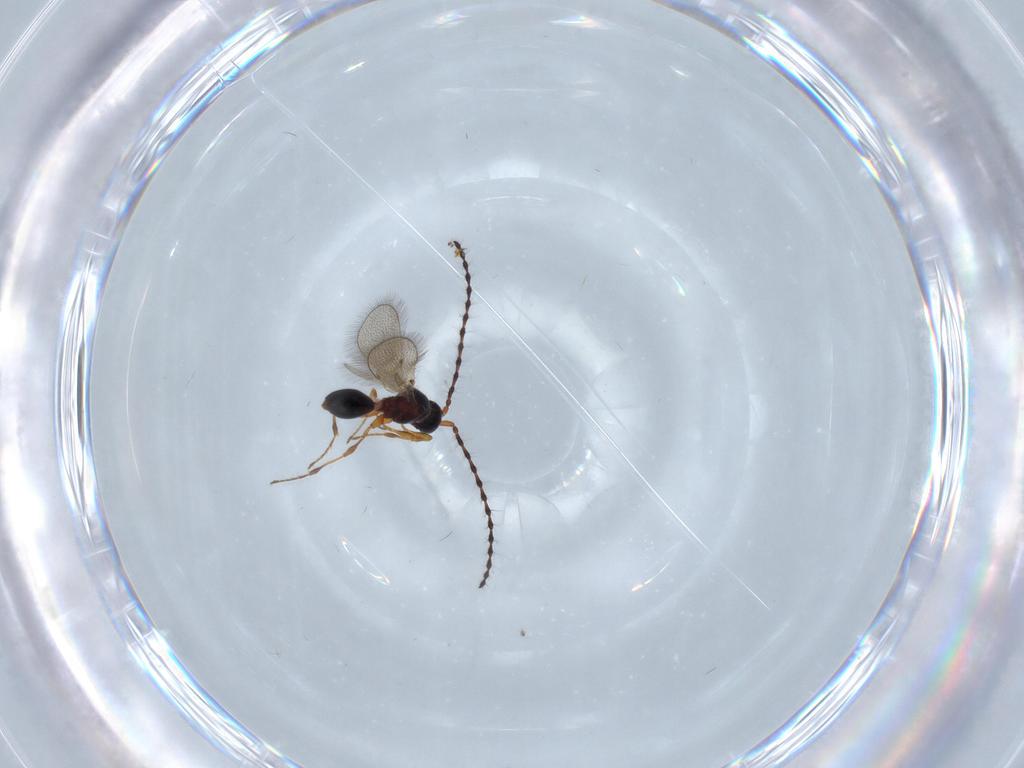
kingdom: Animalia
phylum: Arthropoda
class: Insecta
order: Hymenoptera
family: Diapriidae
